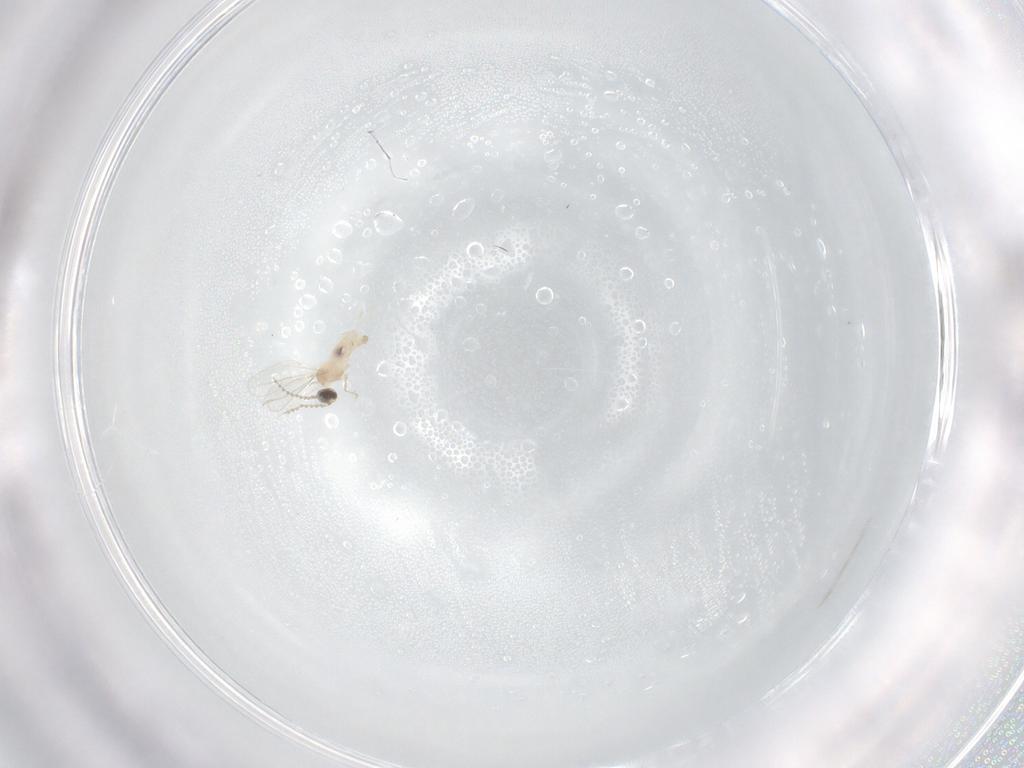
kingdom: Animalia
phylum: Arthropoda
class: Insecta
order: Diptera
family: Cecidomyiidae
